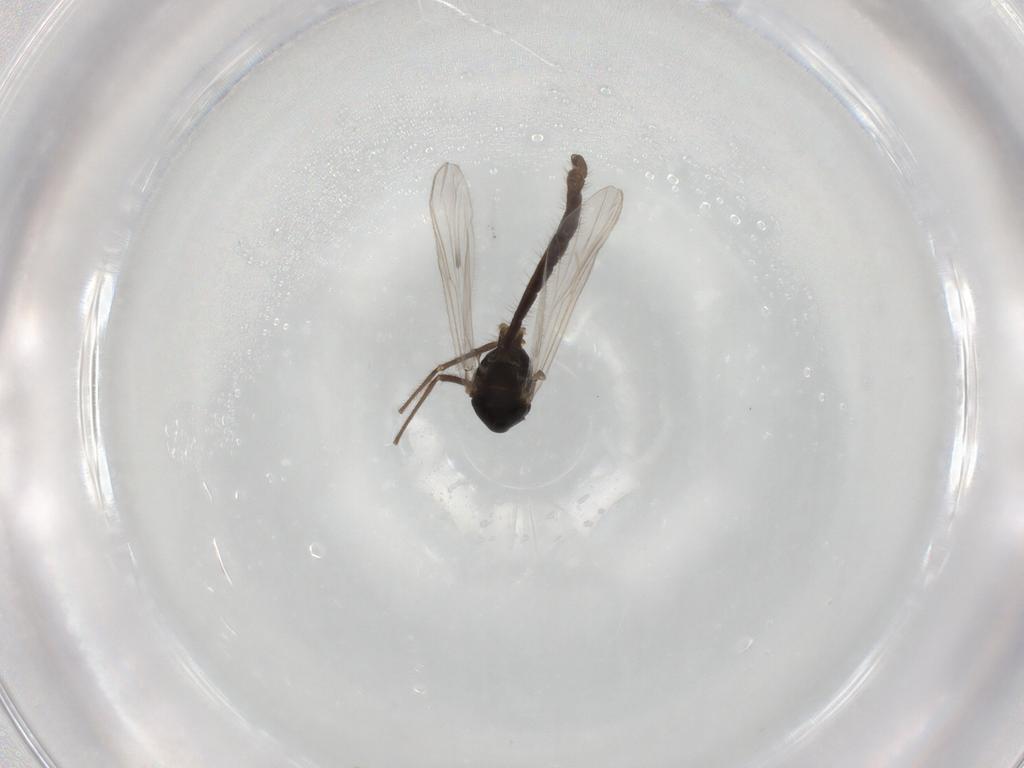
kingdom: Animalia
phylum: Arthropoda
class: Insecta
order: Diptera
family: Chironomidae
